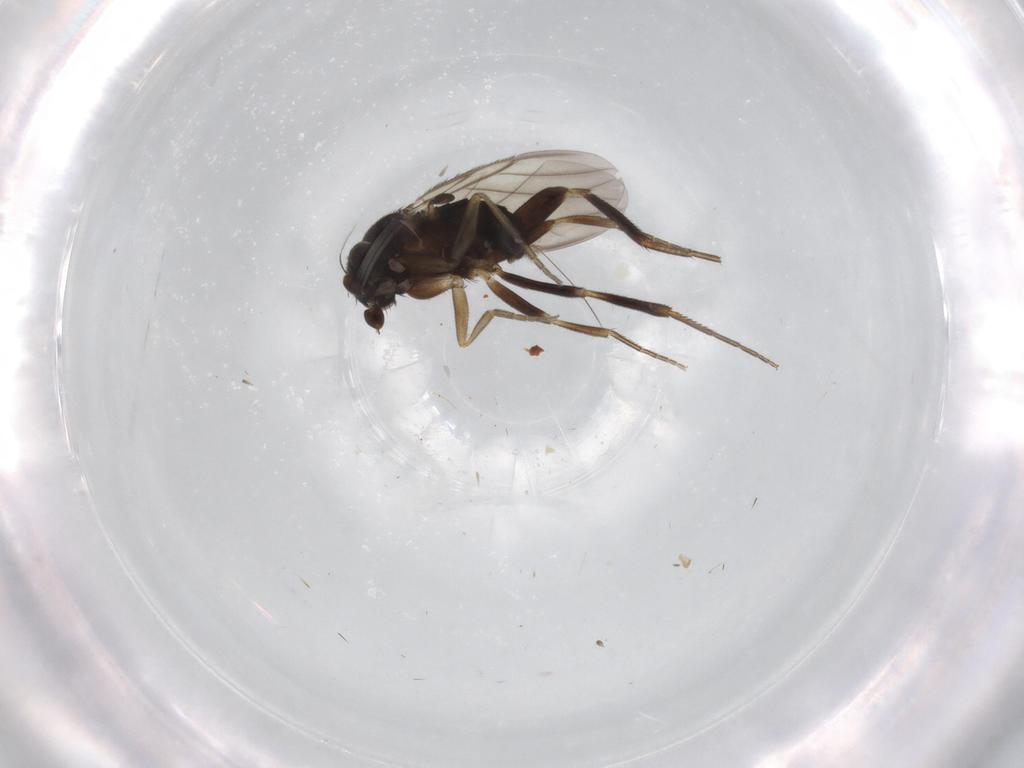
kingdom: Animalia
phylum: Arthropoda
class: Insecta
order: Diptera
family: Phoridae
